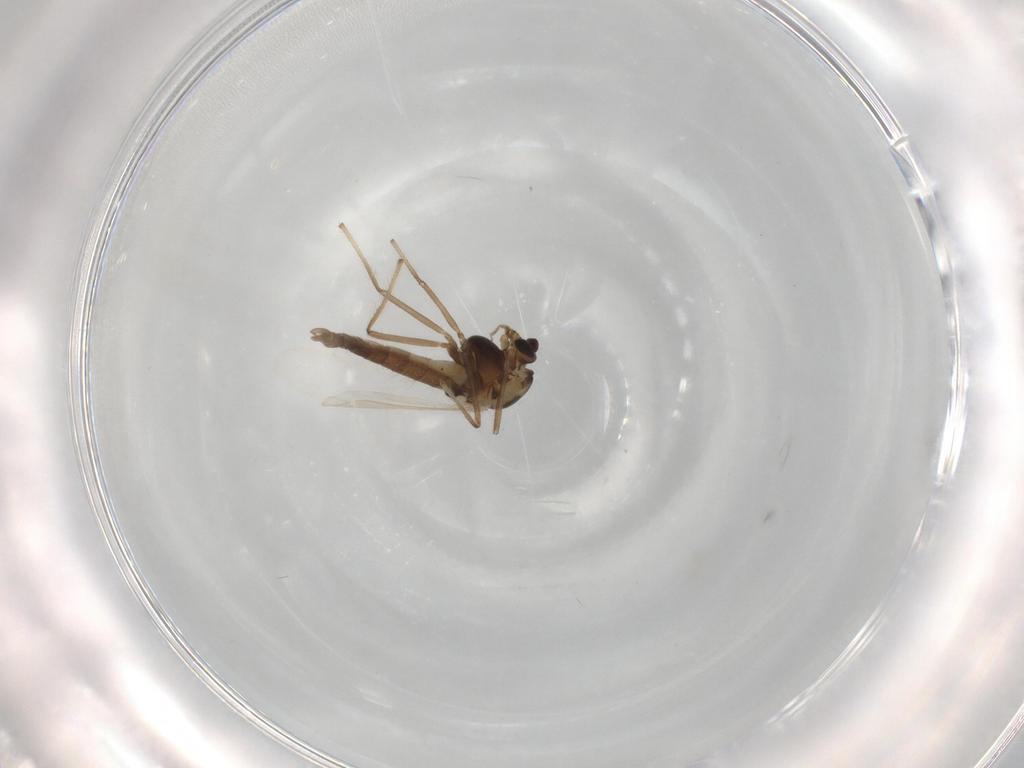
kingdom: Animalia
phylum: Arthropoda
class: Insecta
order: Diptera
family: Chironomidae
